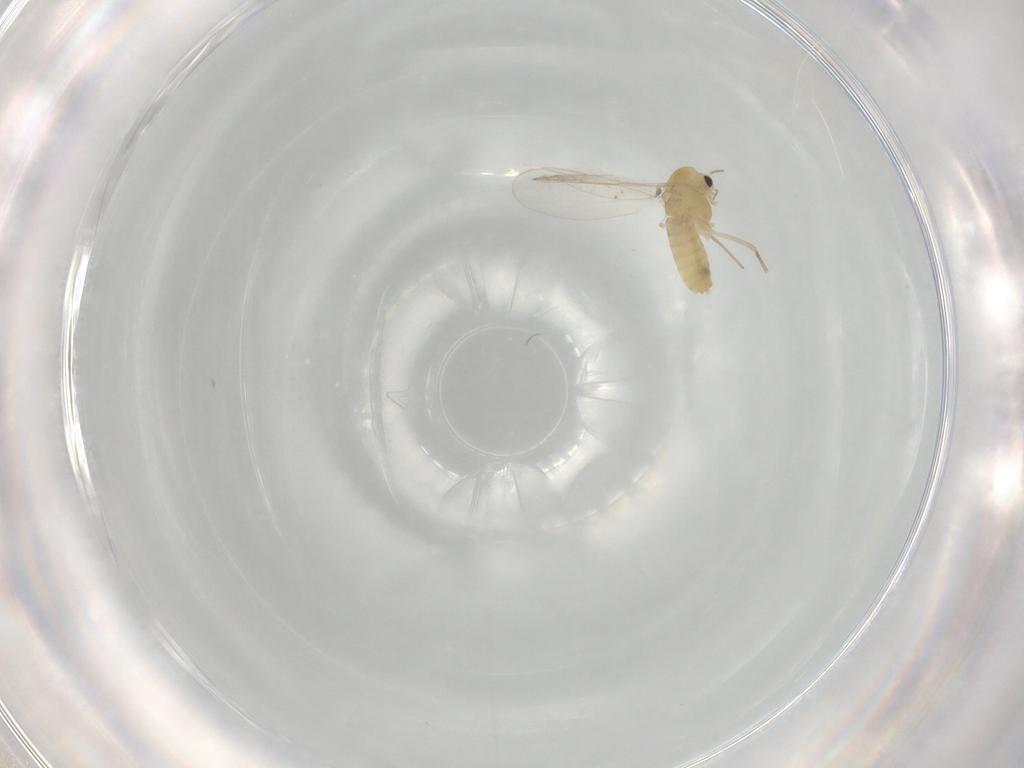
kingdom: Animalia
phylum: Arthropoda
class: Insecta
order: Diptera
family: Chironomidae
